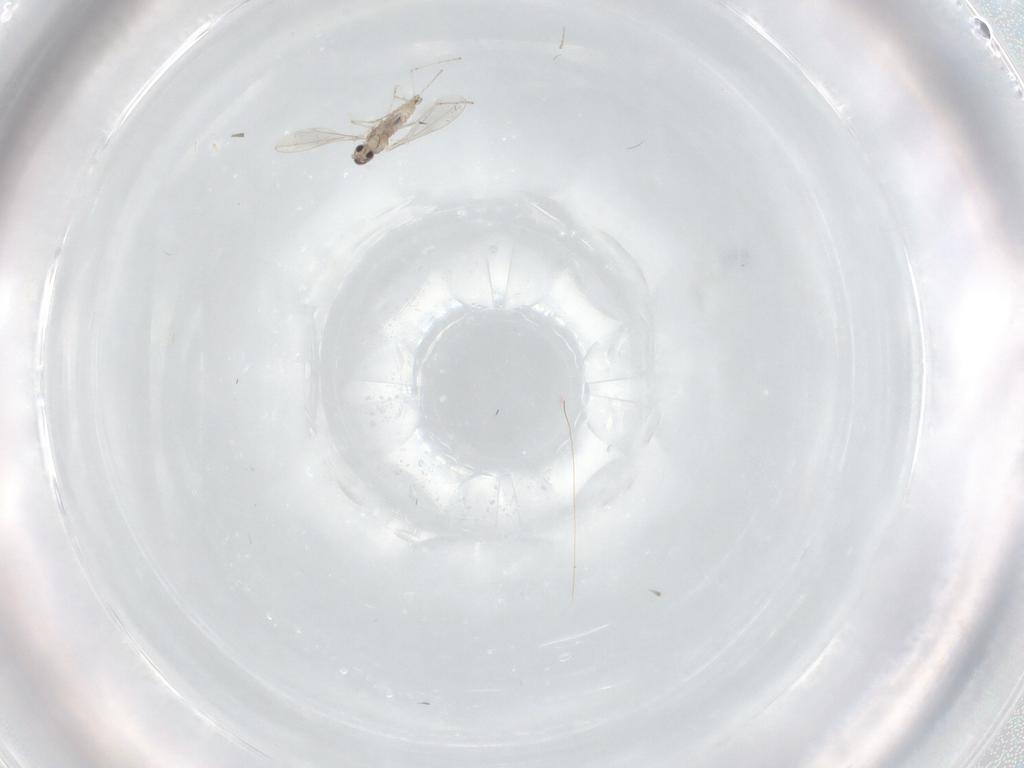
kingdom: Animalia
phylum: Arthropoda
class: Insecta
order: Diptera
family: Cecidomyiidae
